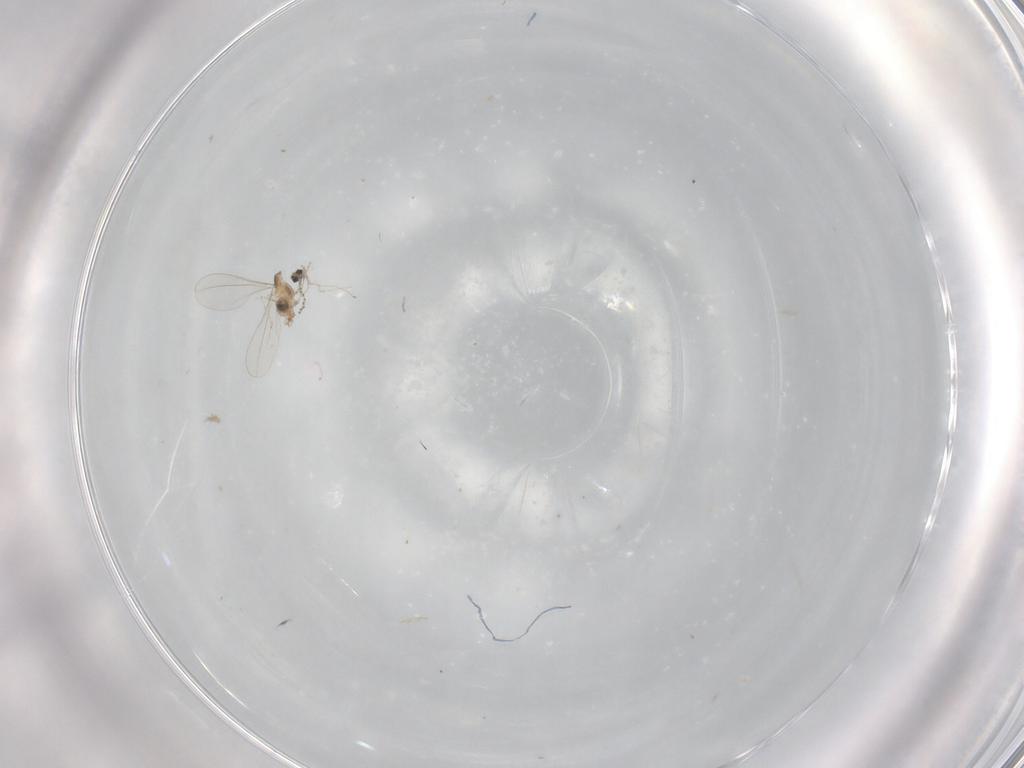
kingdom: Animalia
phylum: Arthropoda
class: Insecta
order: Diptera
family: Cecidomyiidae
